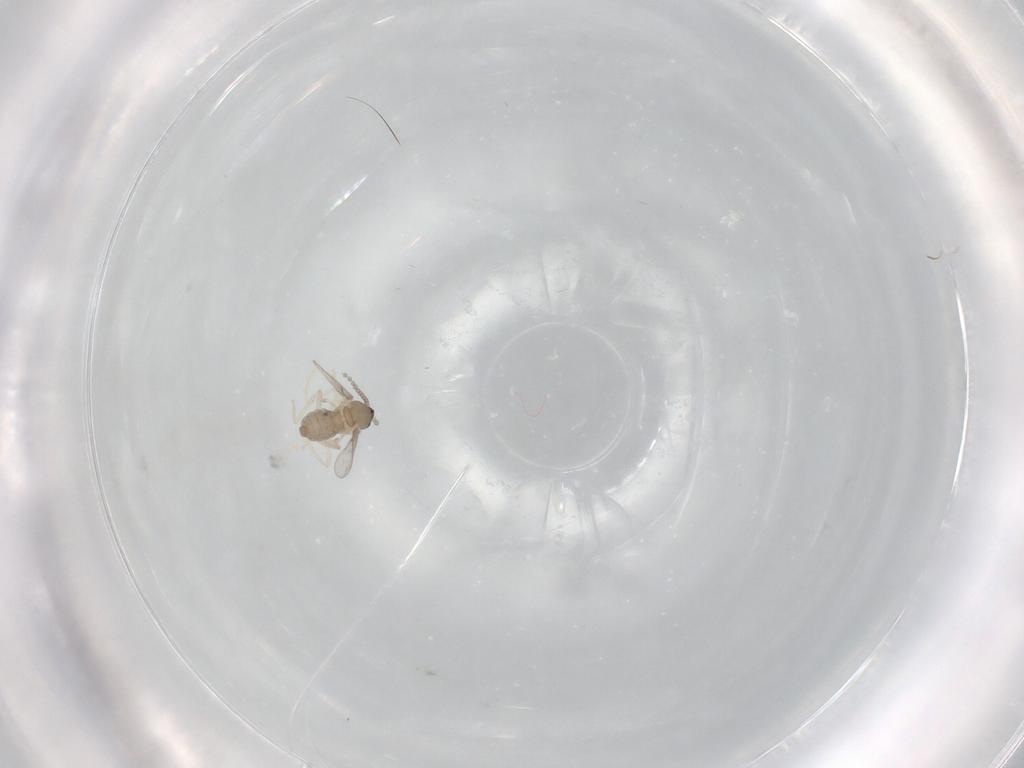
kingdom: Animalia
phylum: Arthropoda
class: Insecta
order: Diptera
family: Cecidomyiidae
